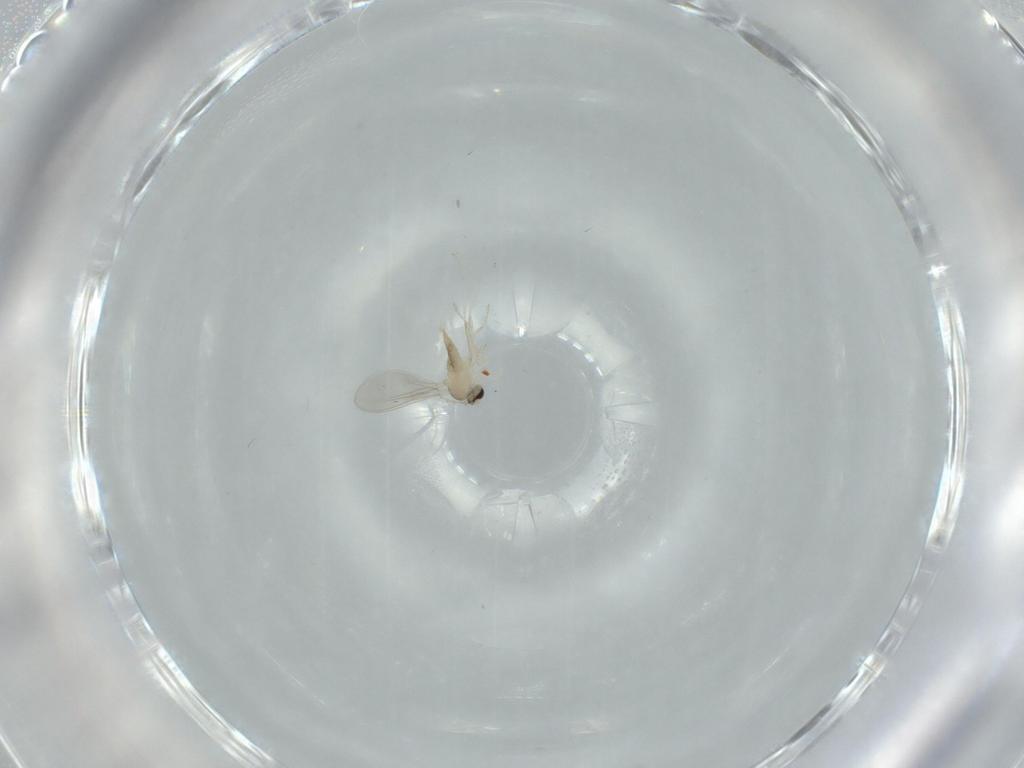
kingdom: Animalia
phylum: Arthropoda
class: Insecta
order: Diptera
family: Cecidomyiidae
